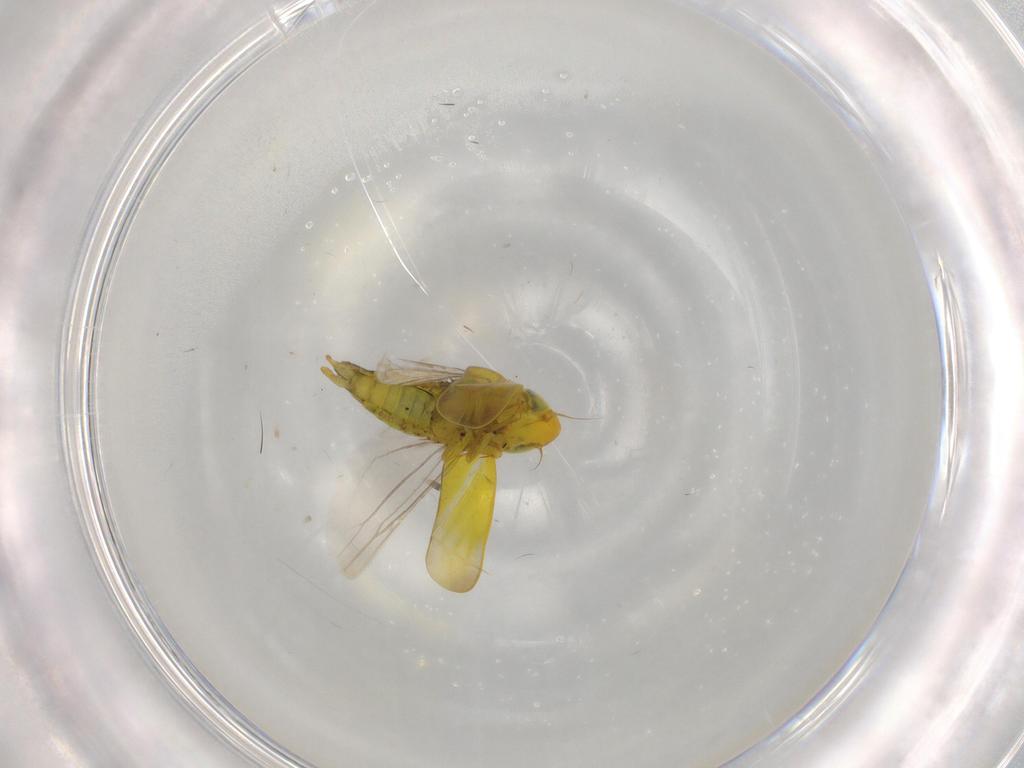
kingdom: Animalia
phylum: Arthropoda
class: Insecta
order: Hemiptera
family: Cicadellidae
